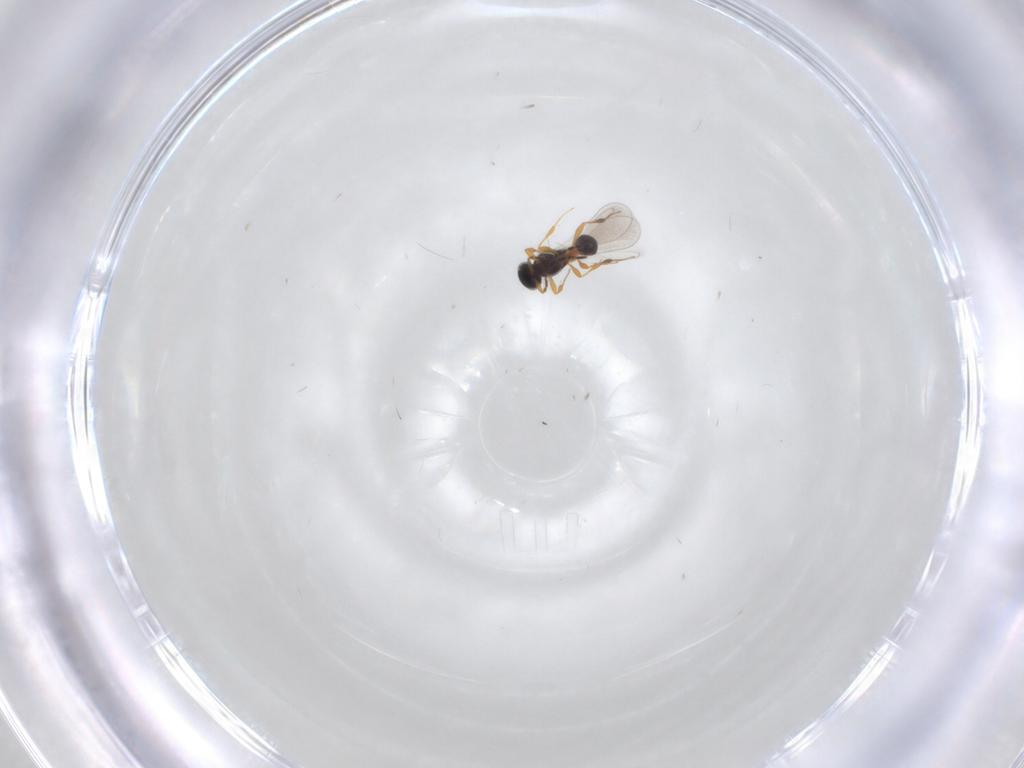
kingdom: Animalia
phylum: Arthropoda
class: Insecta
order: Hymenoptera
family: Platygastridae
